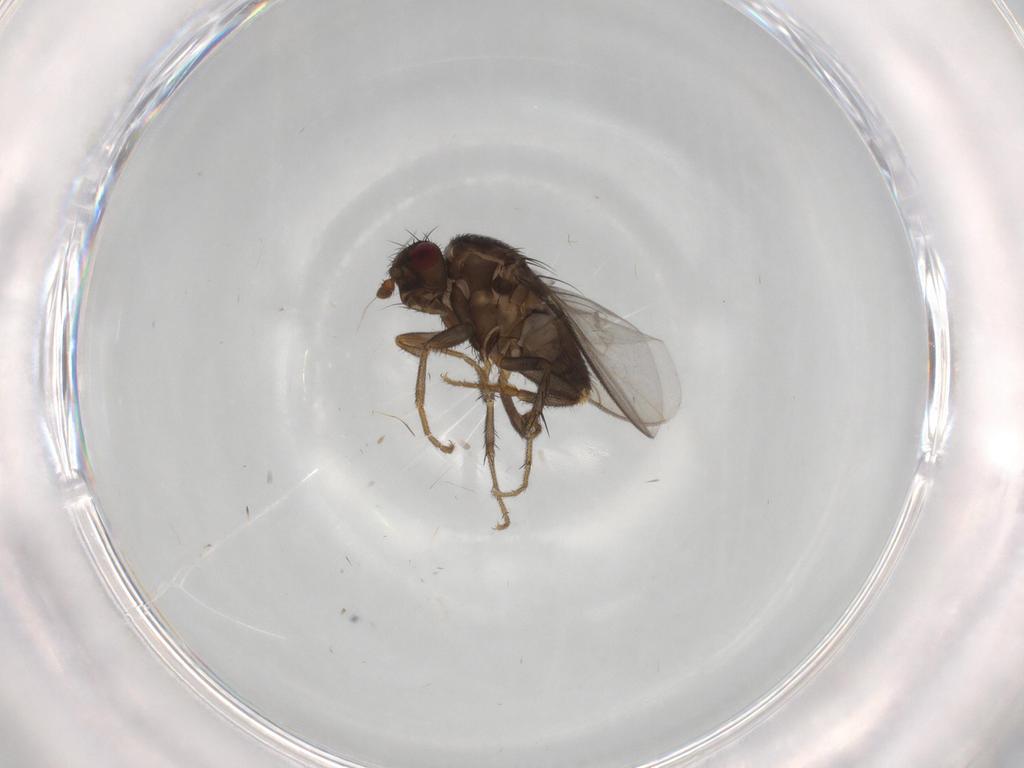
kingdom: Animalia
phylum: Arthropoda
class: Insecta
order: Diptera
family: Sphaeroceridae
